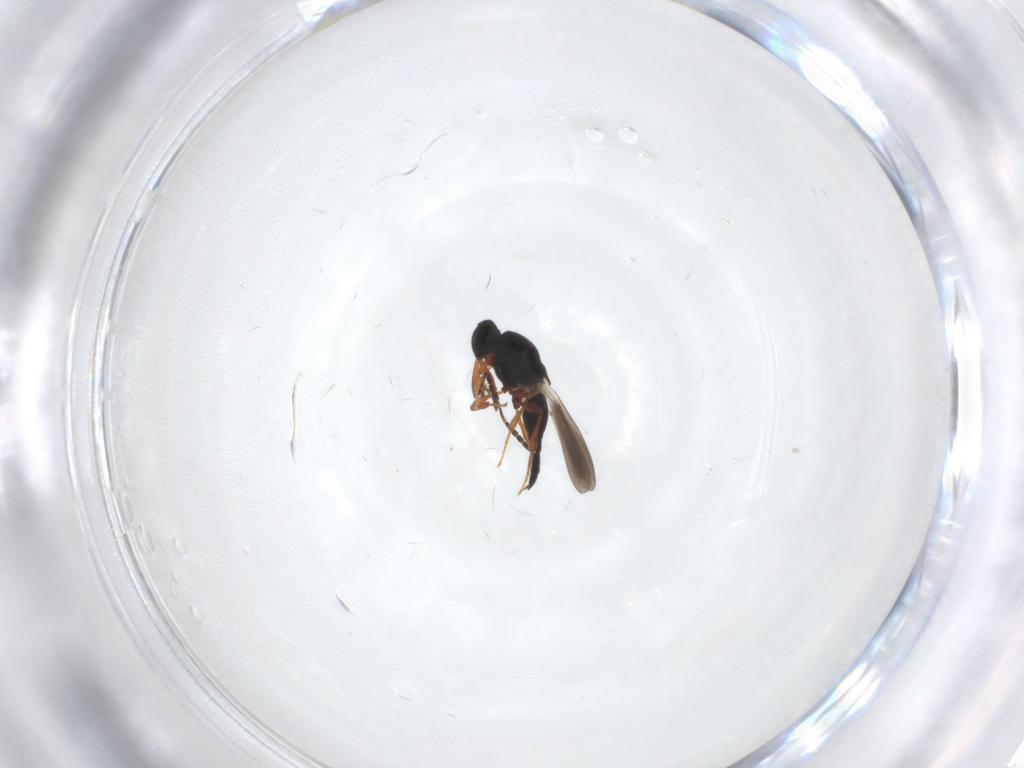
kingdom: Animalia
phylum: Arthropoda
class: Insecta
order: Hymenoptera
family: Platygastridae
